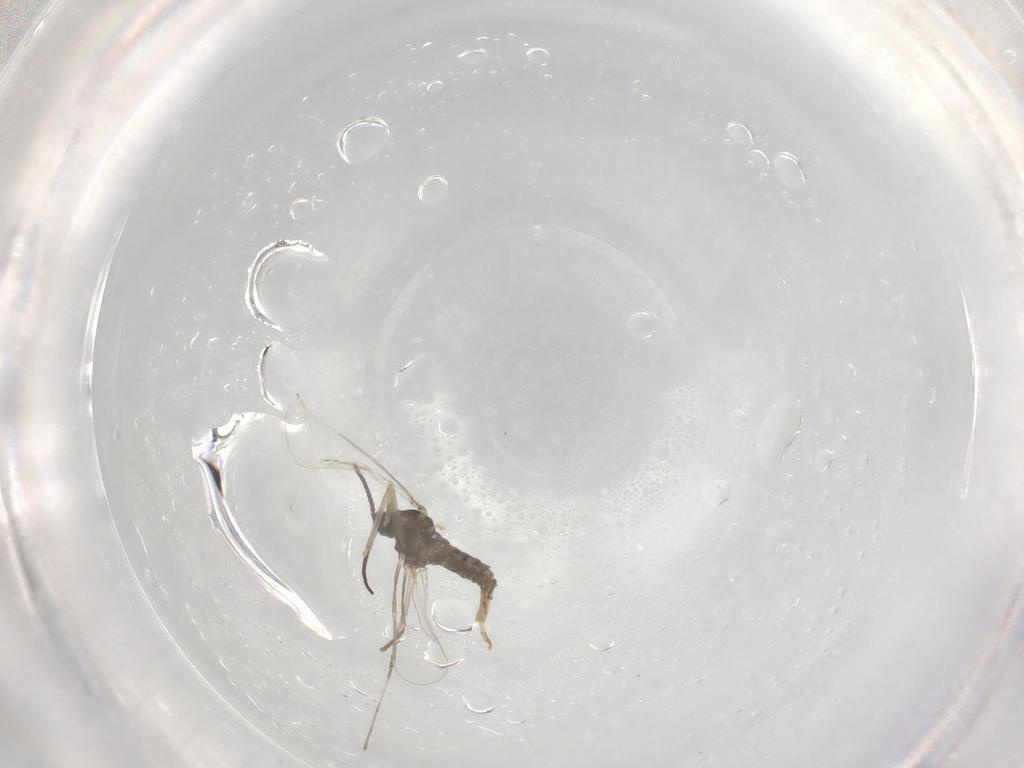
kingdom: Animalia
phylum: Arthropoda
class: Insecta
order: Diptera
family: Cecidomyiidae
